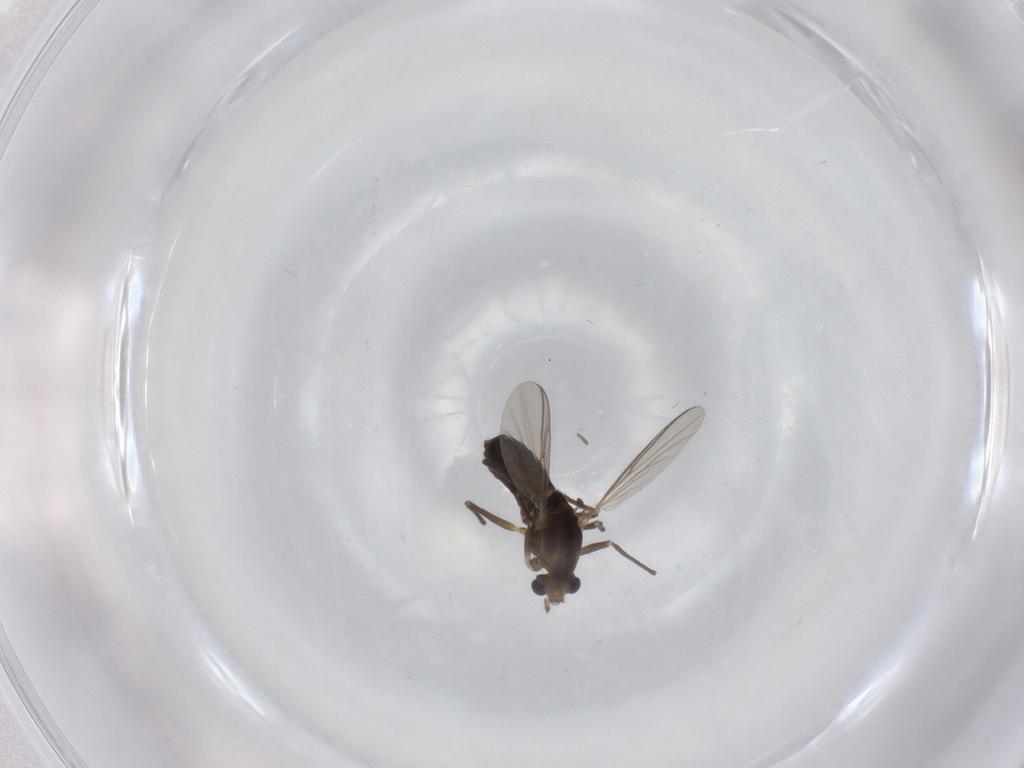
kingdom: Animalia
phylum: Arthropoda
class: Insecta
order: Diptera
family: Chironomidae
